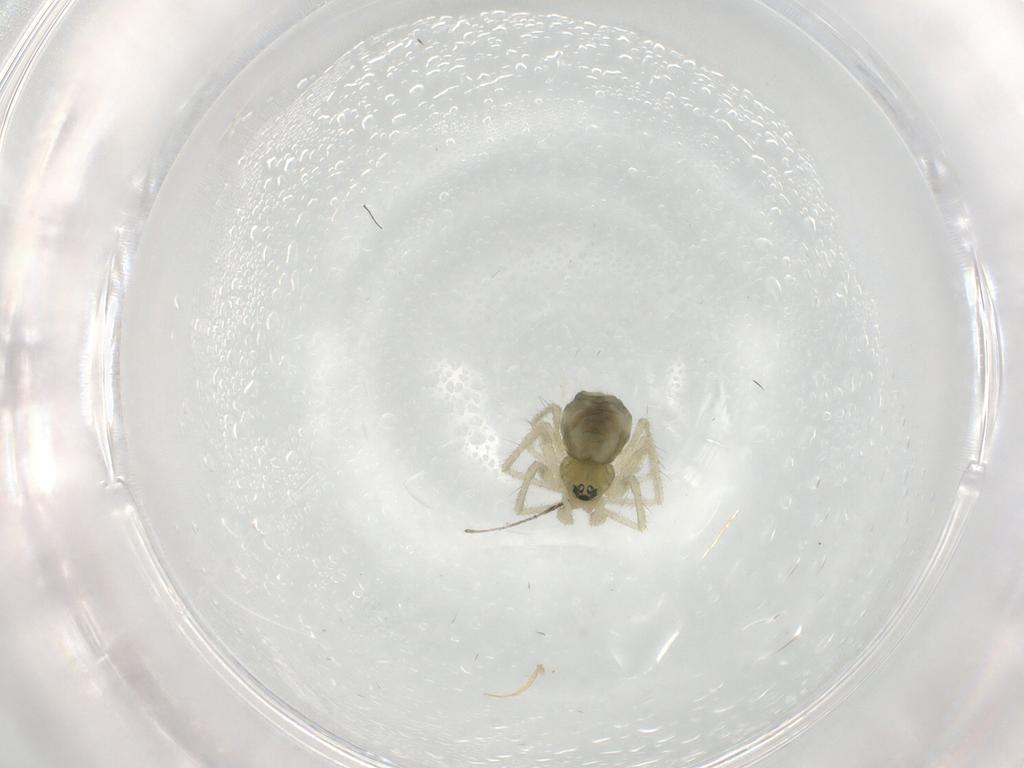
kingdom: Animalia
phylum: Arthropoda
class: Arachnida
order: Araneae
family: Linyphiidae
